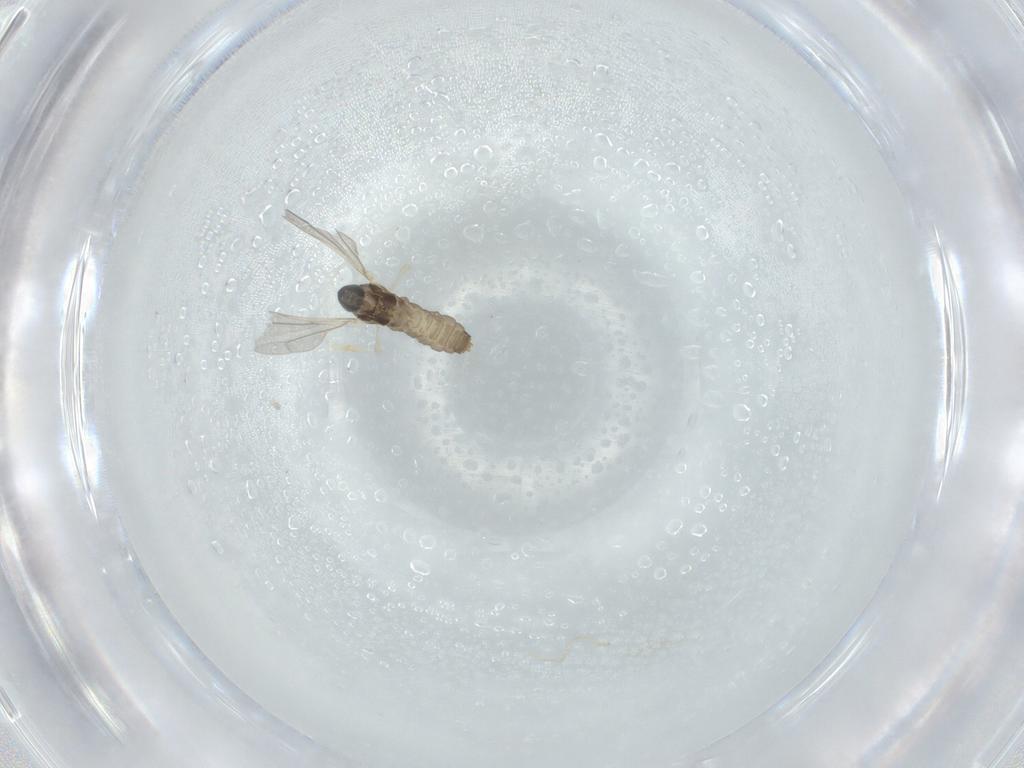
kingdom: Animalia
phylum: Arthropoda
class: Insecta
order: Diptera
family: Cecidomyiidae
